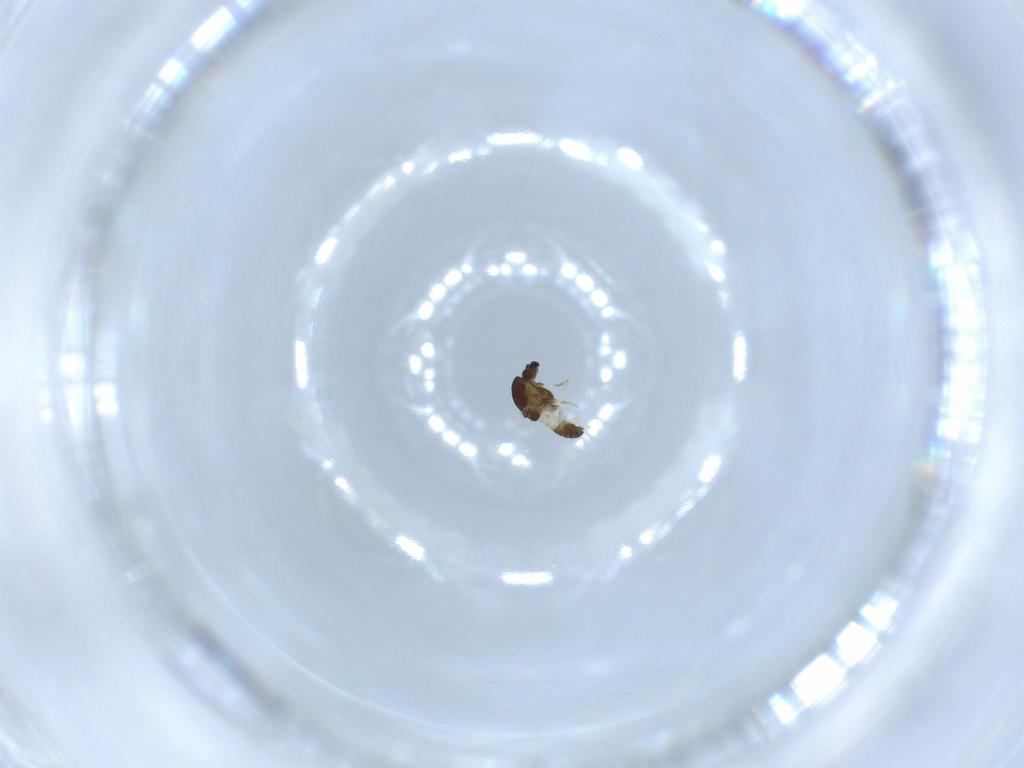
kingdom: Animalia
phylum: Arthropoda
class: Insecta
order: Diptera
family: Chironomidae
